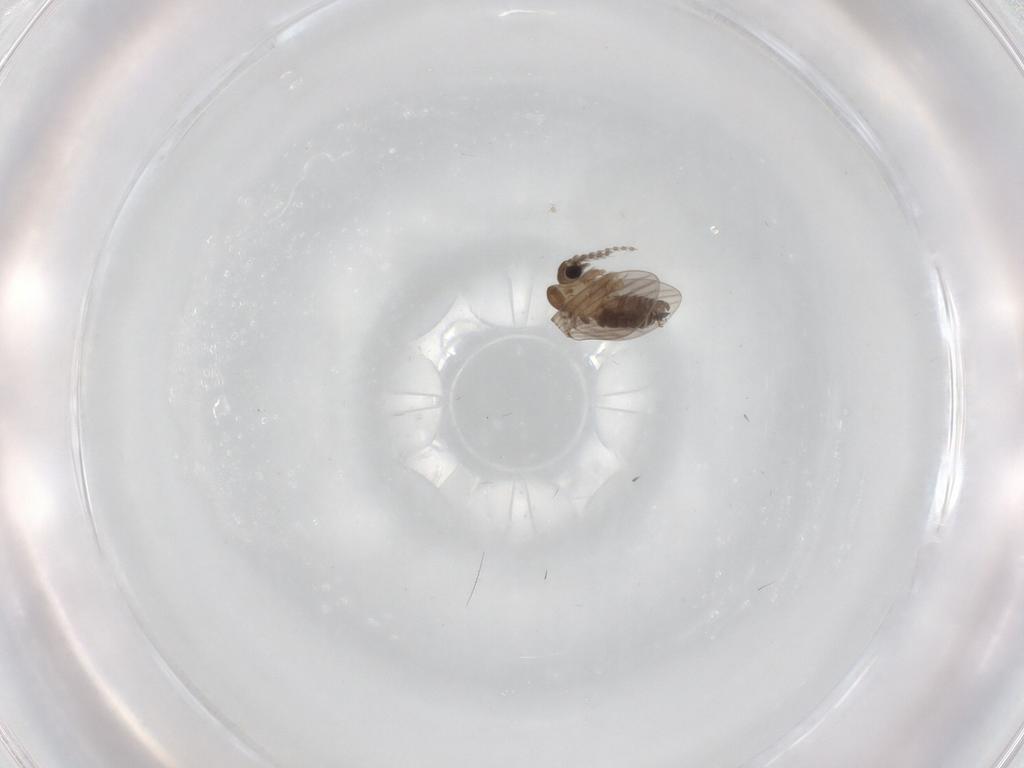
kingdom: Animalia
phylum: Arthropoda
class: Insecta
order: Diptera
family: Cecidomyiidae
